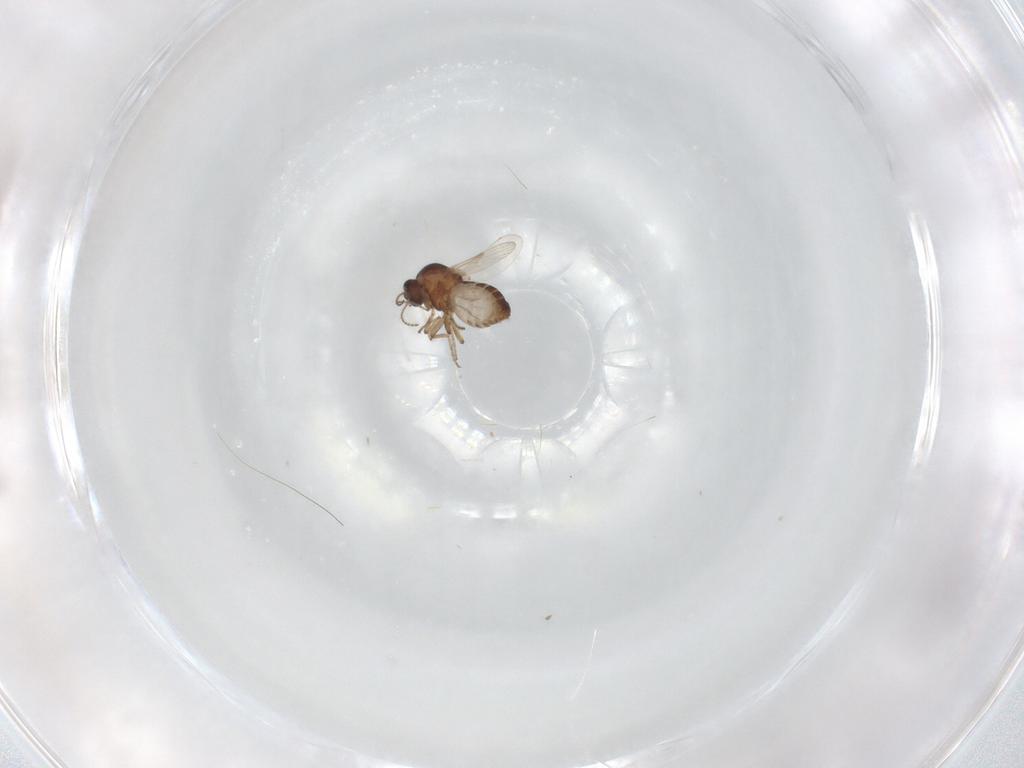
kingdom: Animalia
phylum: Arthropoda
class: Insecta
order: Diptera
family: Ceratopogonidae
